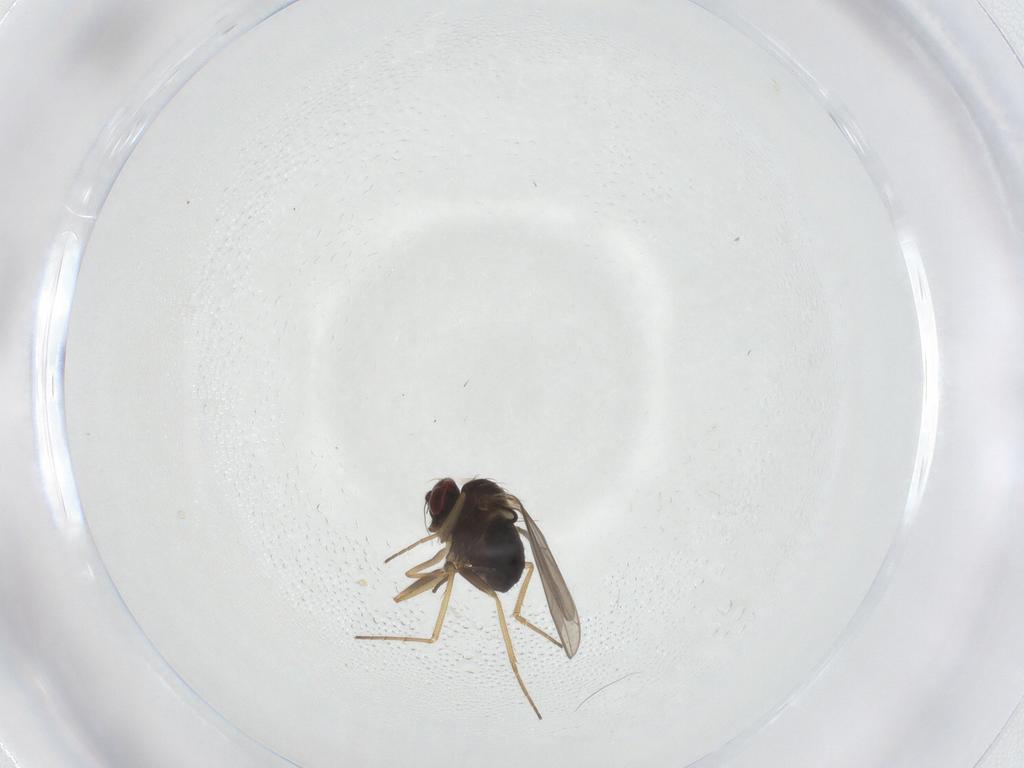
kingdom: Animalia
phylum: Arthropoda
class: Insecta
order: Diptera
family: Dolichopodidae
